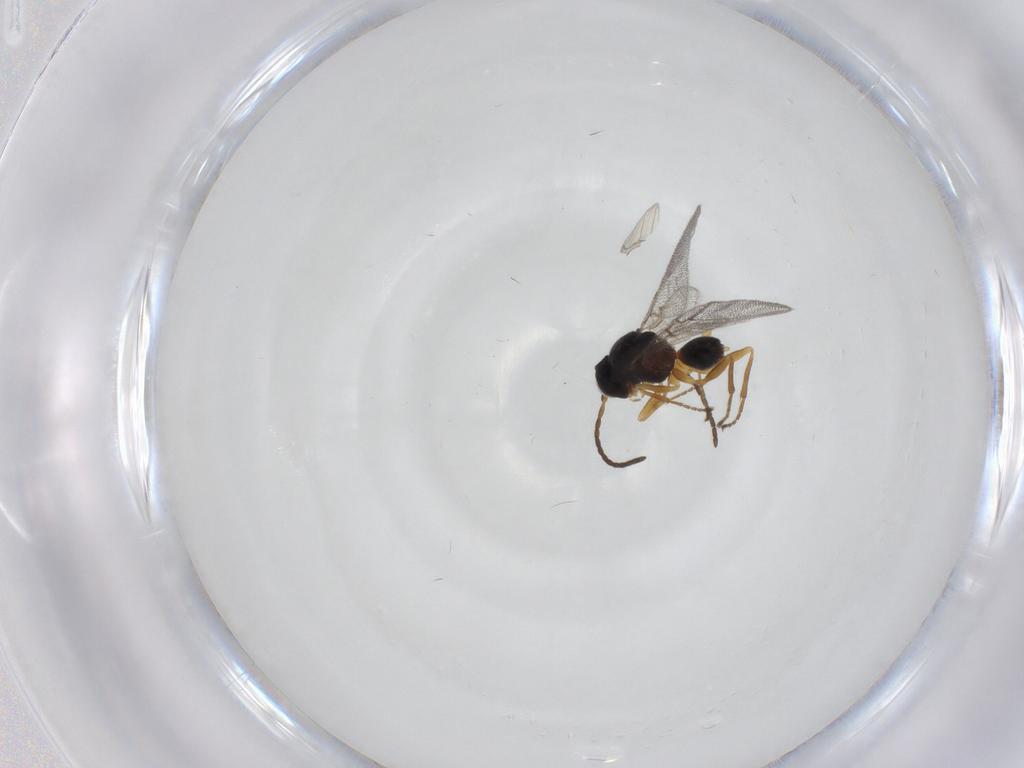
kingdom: Animalia
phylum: Arthropoda
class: Insecta
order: Hymenoptera
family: Cynipidae
